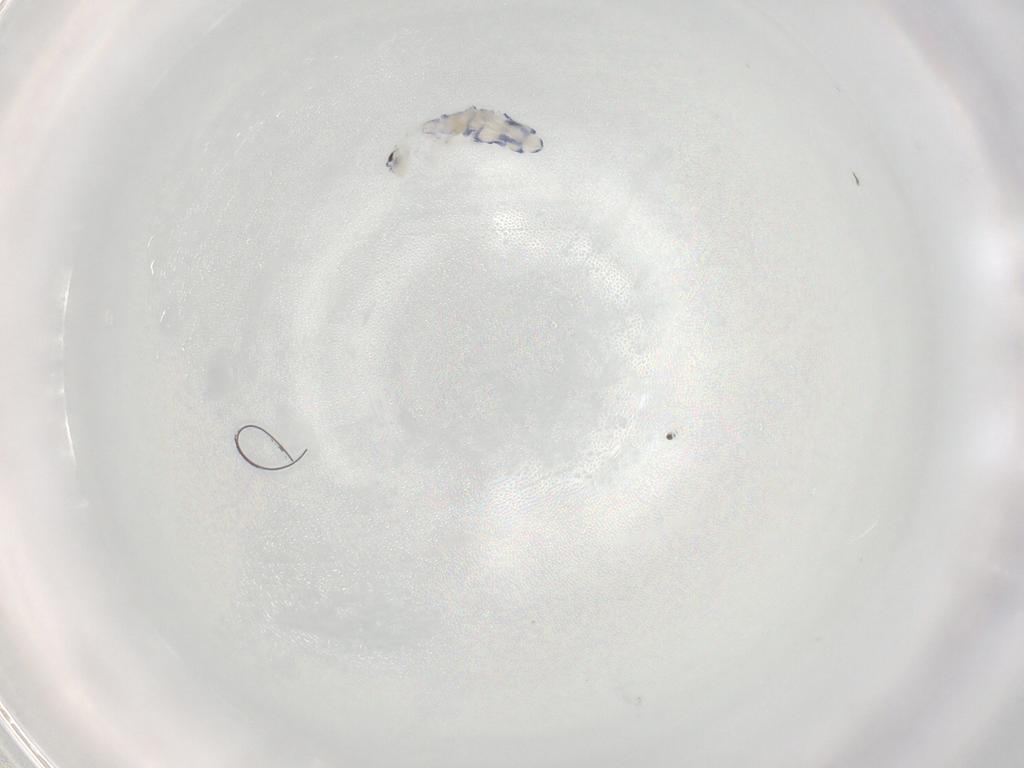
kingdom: Animalia
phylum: Arthropoda
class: Collembola
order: Entomobryomorpha
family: Entomobryidae
